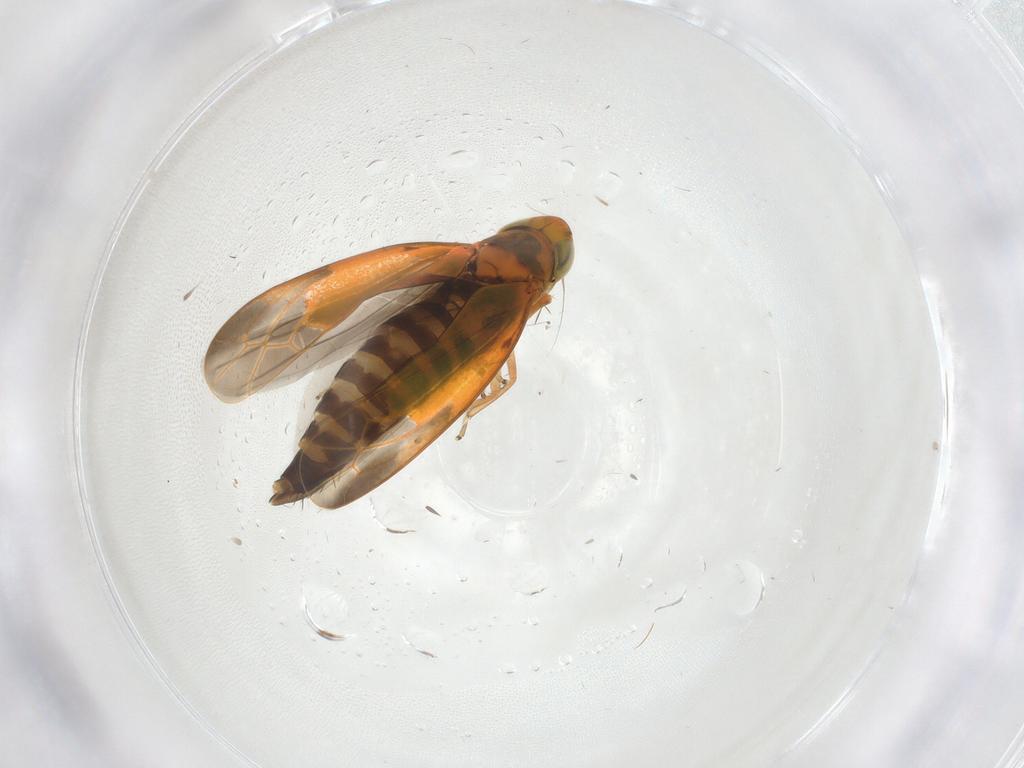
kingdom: Animalia
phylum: Arthropoda
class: Insecta
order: Hemiptera
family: Cicadellidae
